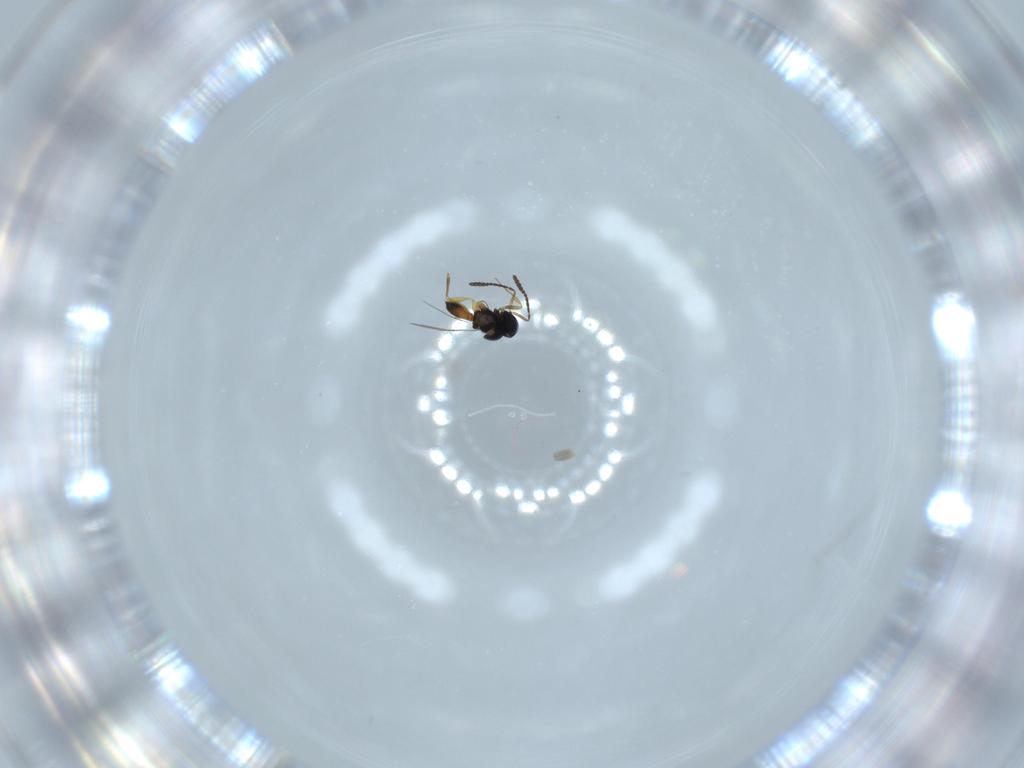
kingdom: Animalia
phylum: Arthropoda
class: Insecta
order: Hymenoptera
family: Scelionidae
